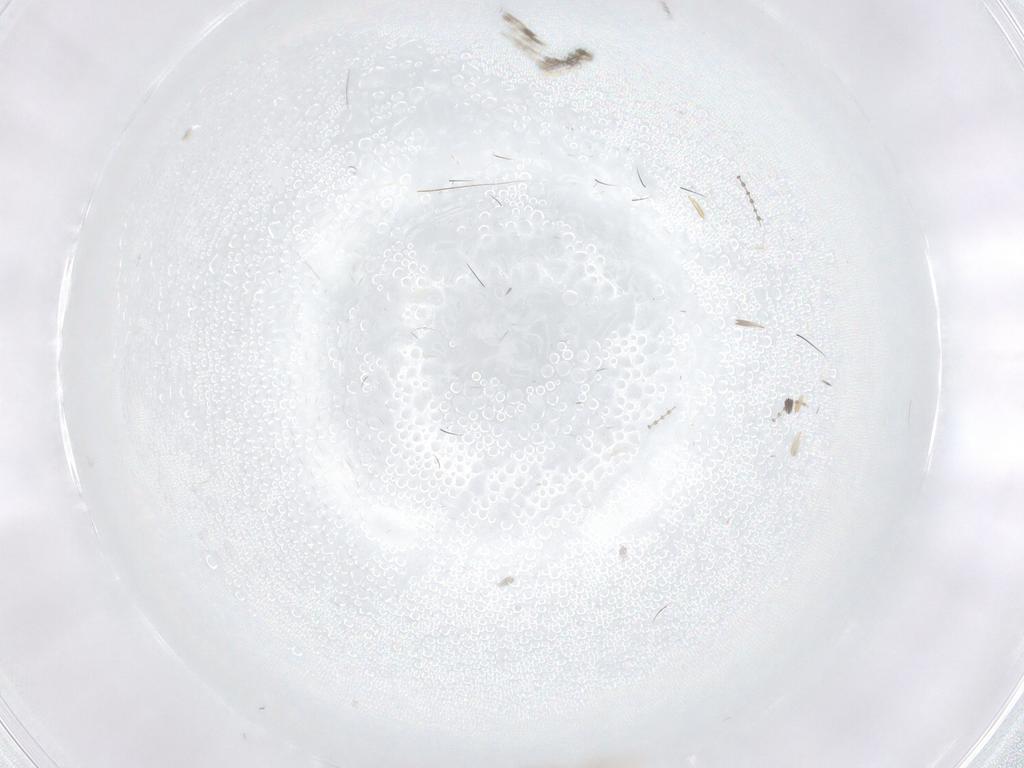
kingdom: Animalia
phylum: Arthropoda
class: Insecta
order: Diptera
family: Cecidomyiidae
